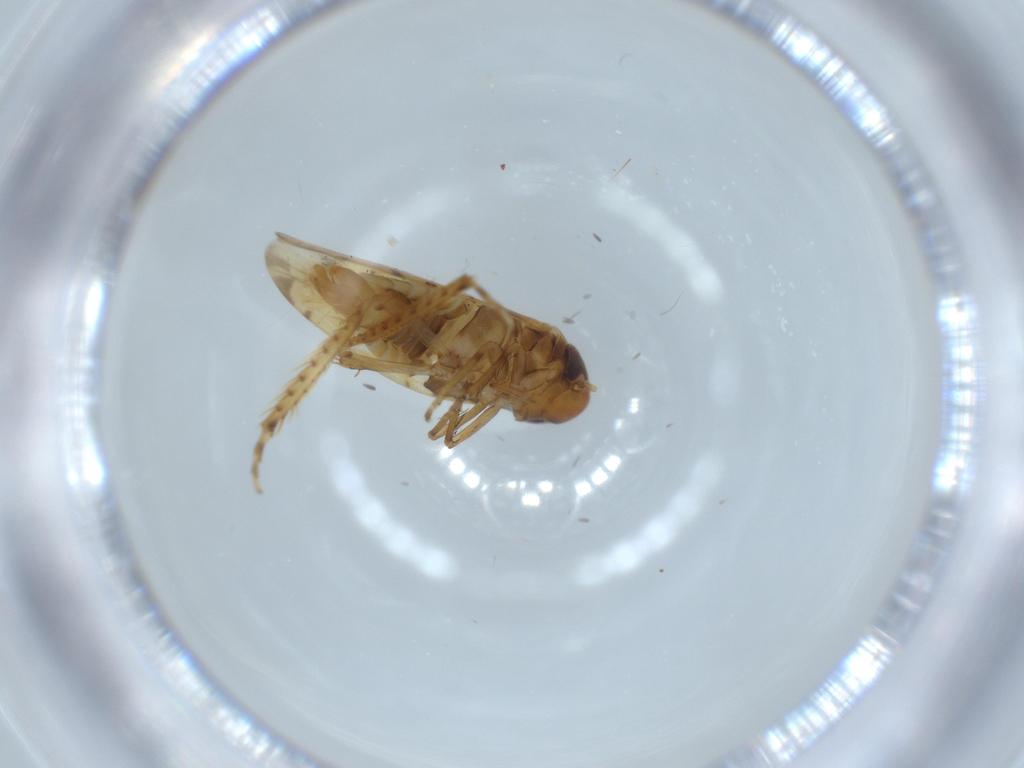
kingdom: Animalia
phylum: Arthropoda
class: Insecta
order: Hemiptera
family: Cicadellidae
